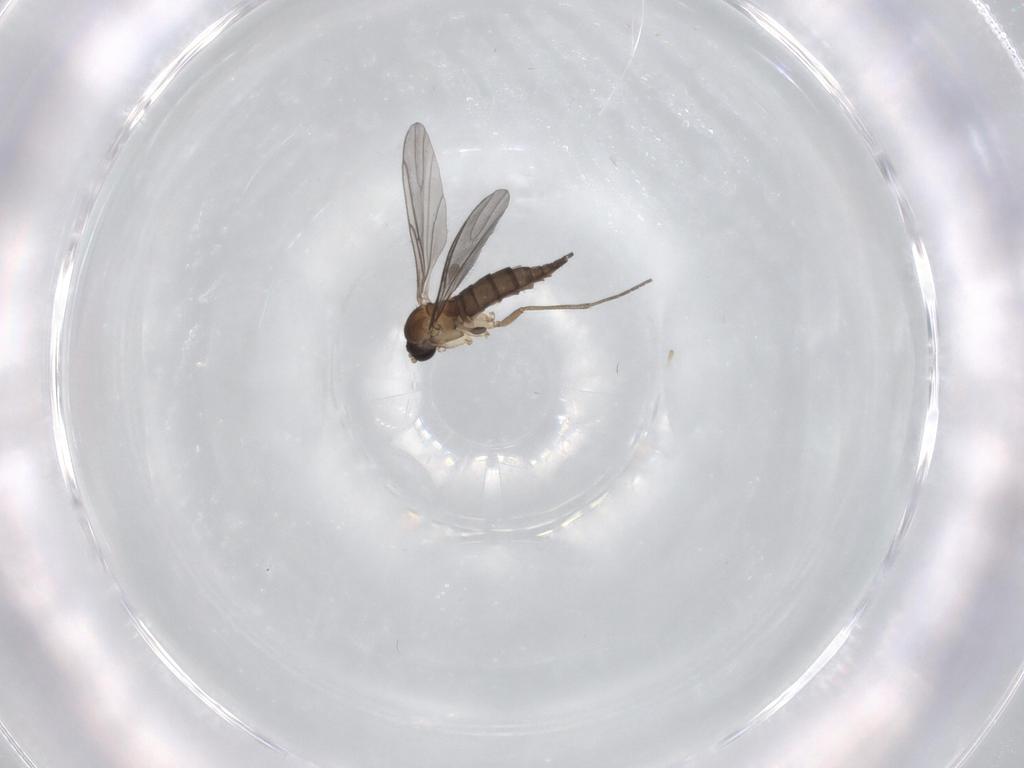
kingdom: Animalia
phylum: Arthropoda
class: Insecta
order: Diptera
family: Sciaridae
